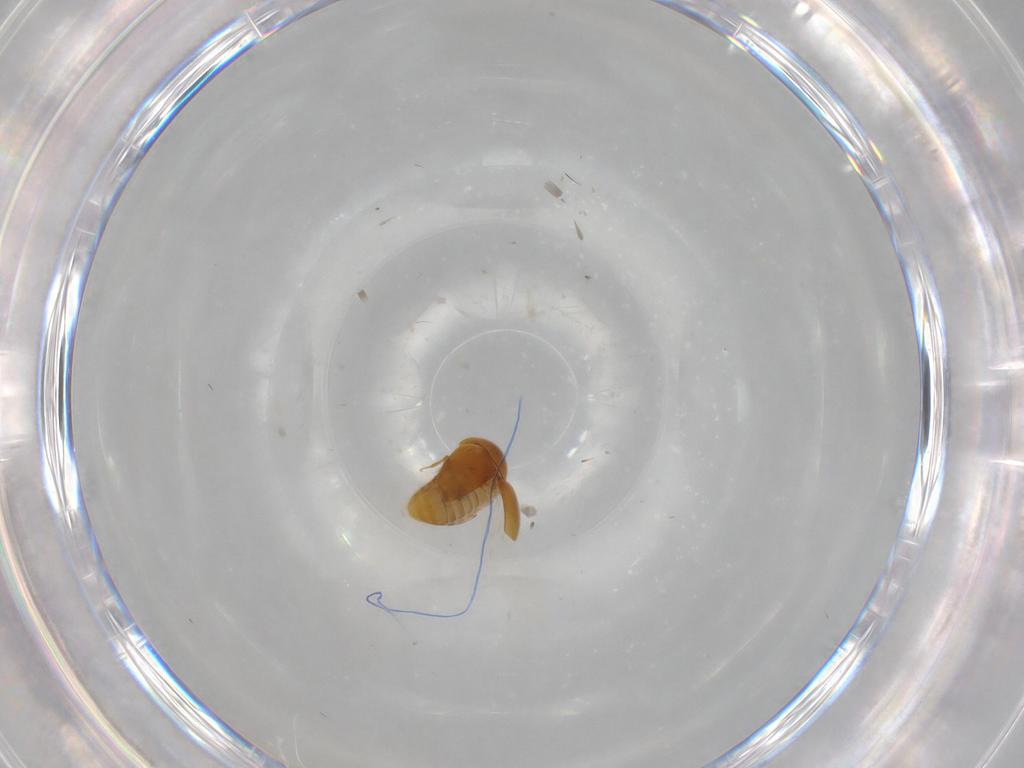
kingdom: Animalia
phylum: Arthropoda
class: Insecta
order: Coleoptera
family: Corylophidae
